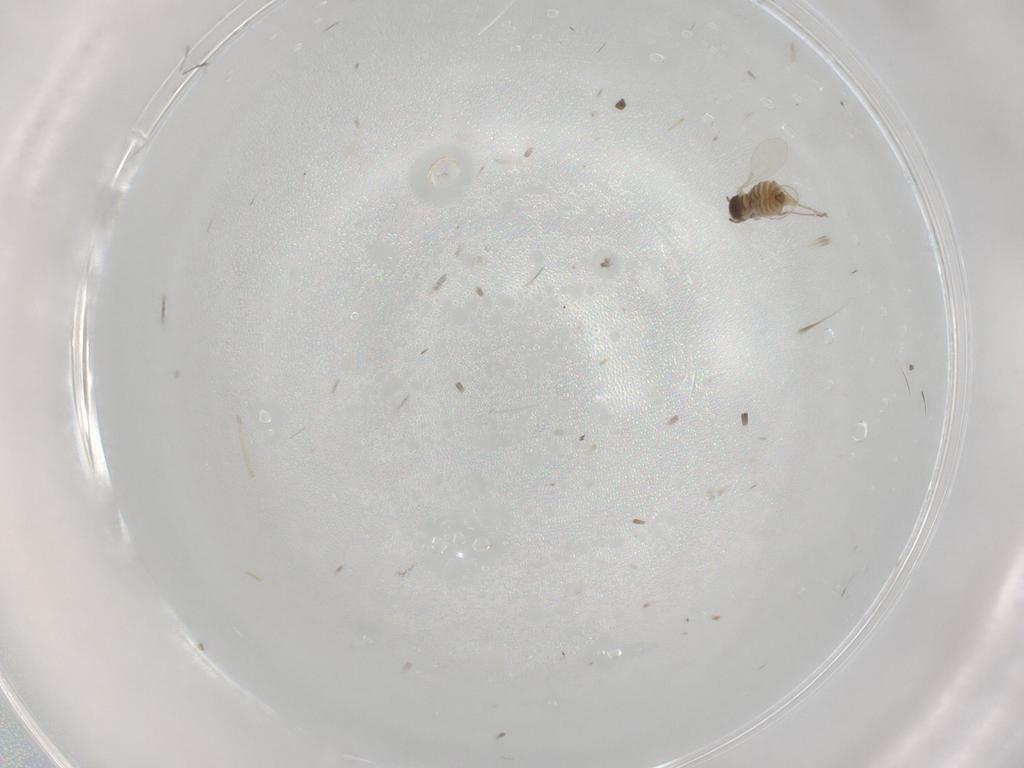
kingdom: Animalia
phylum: Arthropoda
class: Insecta
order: Diptera
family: Cecidomyiidae
